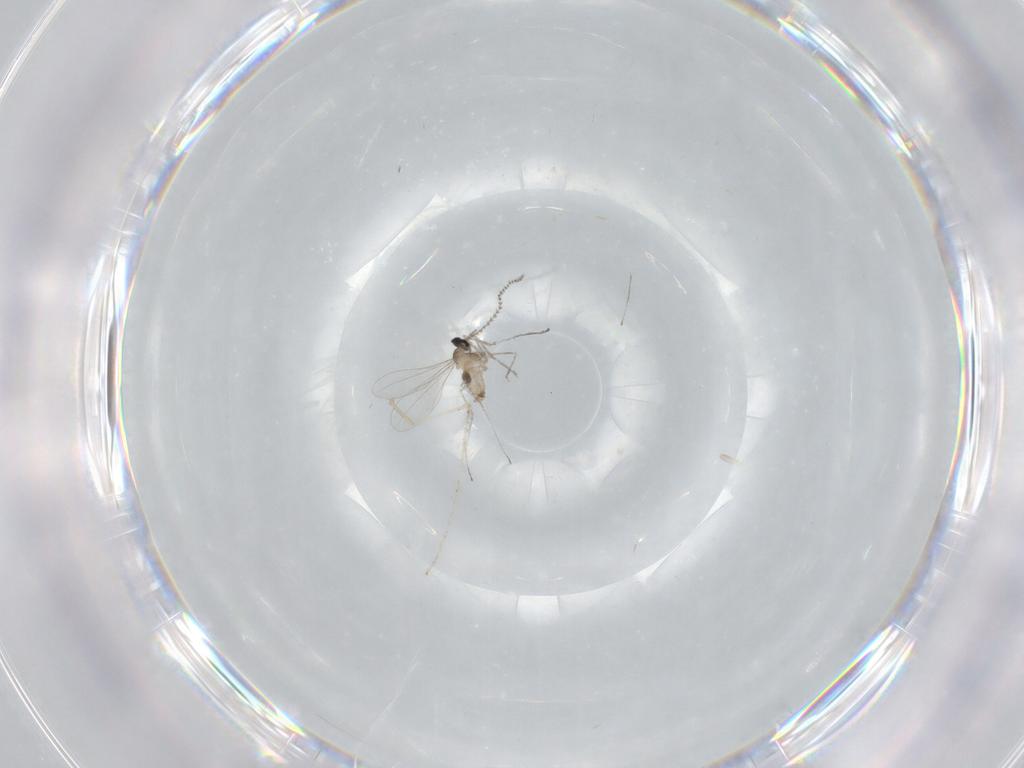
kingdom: Animalia
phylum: Arthropoda
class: Insecta
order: Diptera
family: Cecidomyiidae
